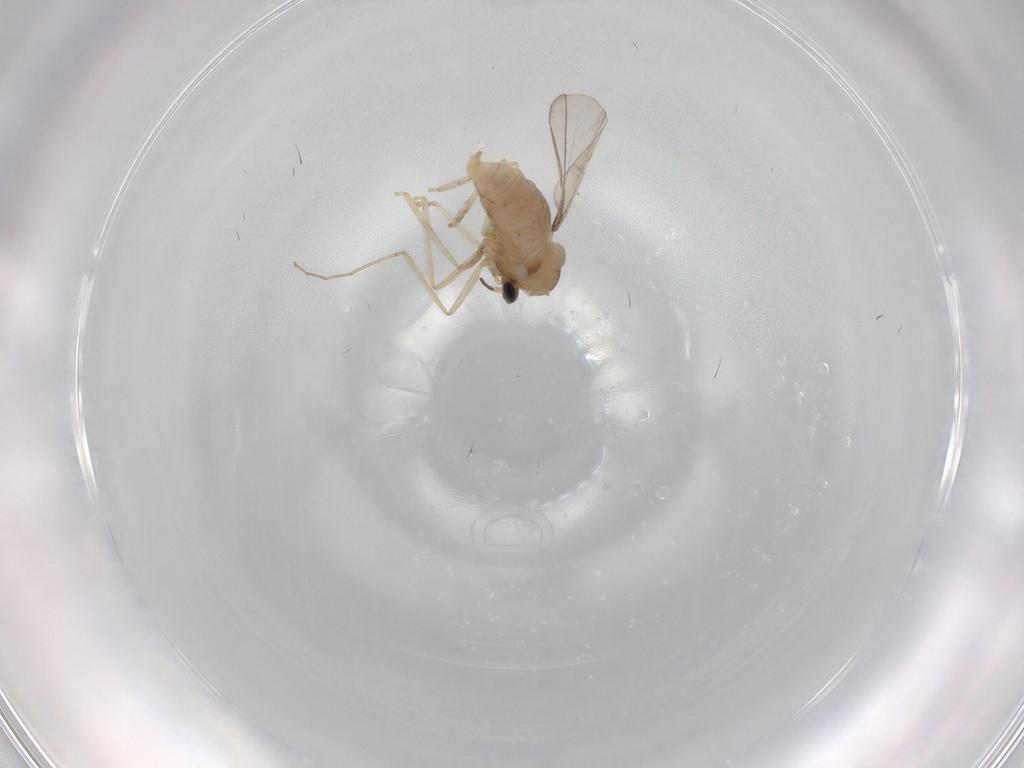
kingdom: Animalia
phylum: Arthropoda
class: Insecta
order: Diptera
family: Cecidomyiidae
